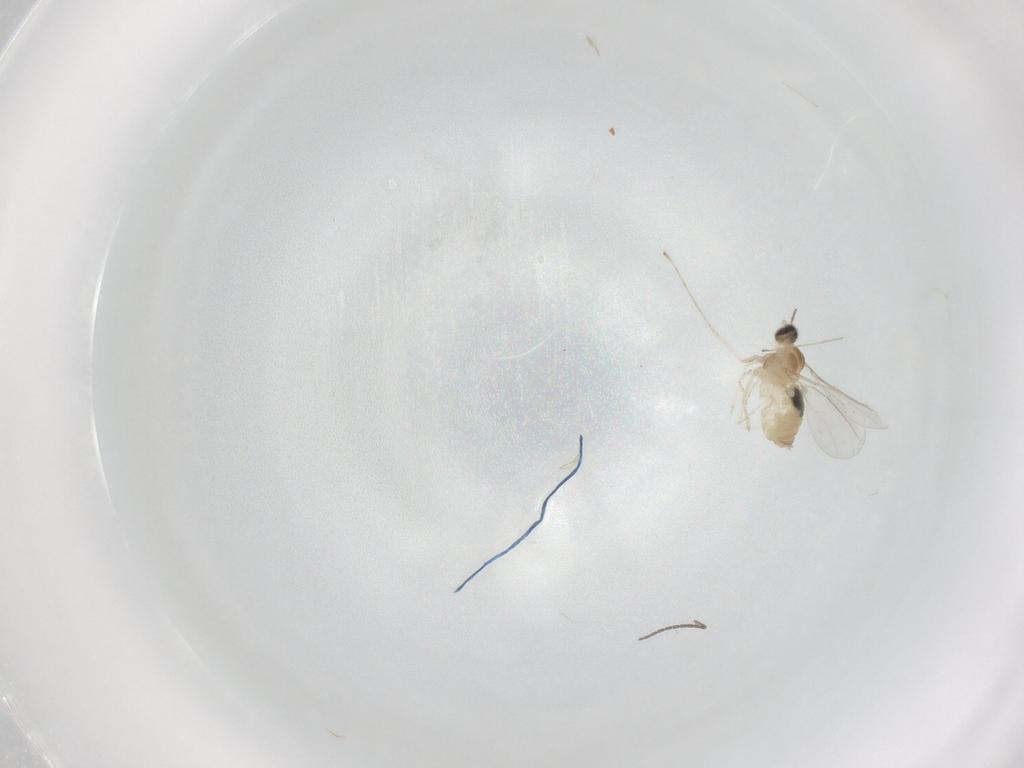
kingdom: Animalia
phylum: Arthropoda
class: Insecta
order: Diptera
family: Cecidomyiidae
